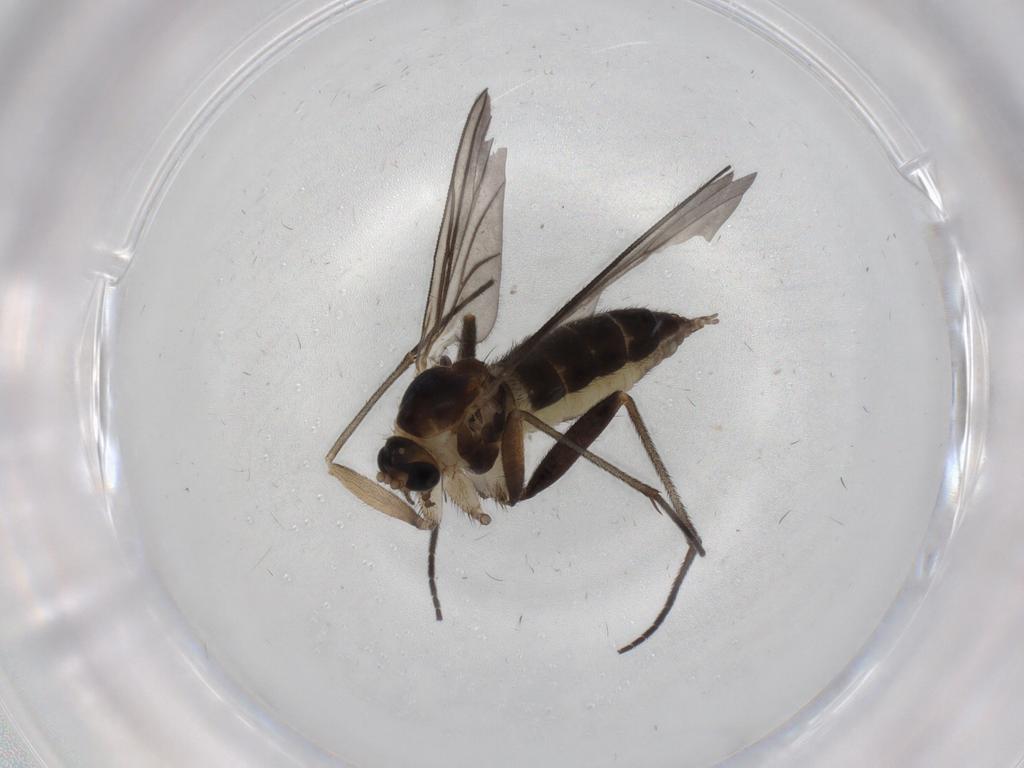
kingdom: Animalia
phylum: Arthropoda
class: Insecta
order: Diptera
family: Sciaridae
